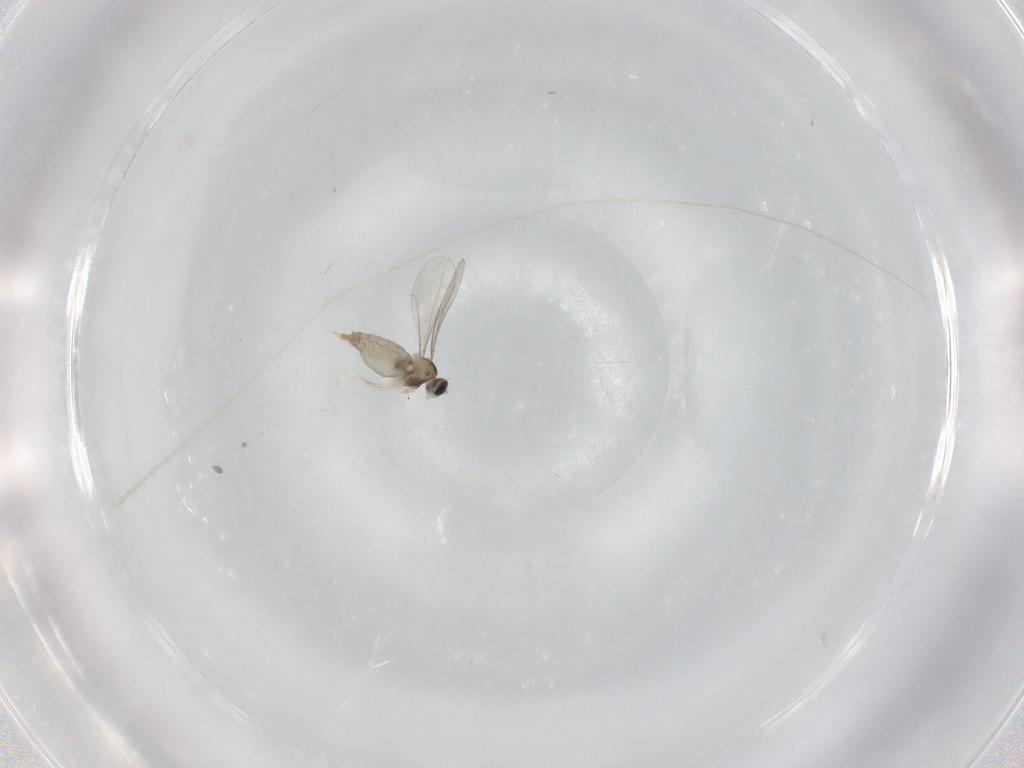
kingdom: Animalia
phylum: Arthropoda
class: Insecta
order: Diptera
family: Cecidomyiidae
